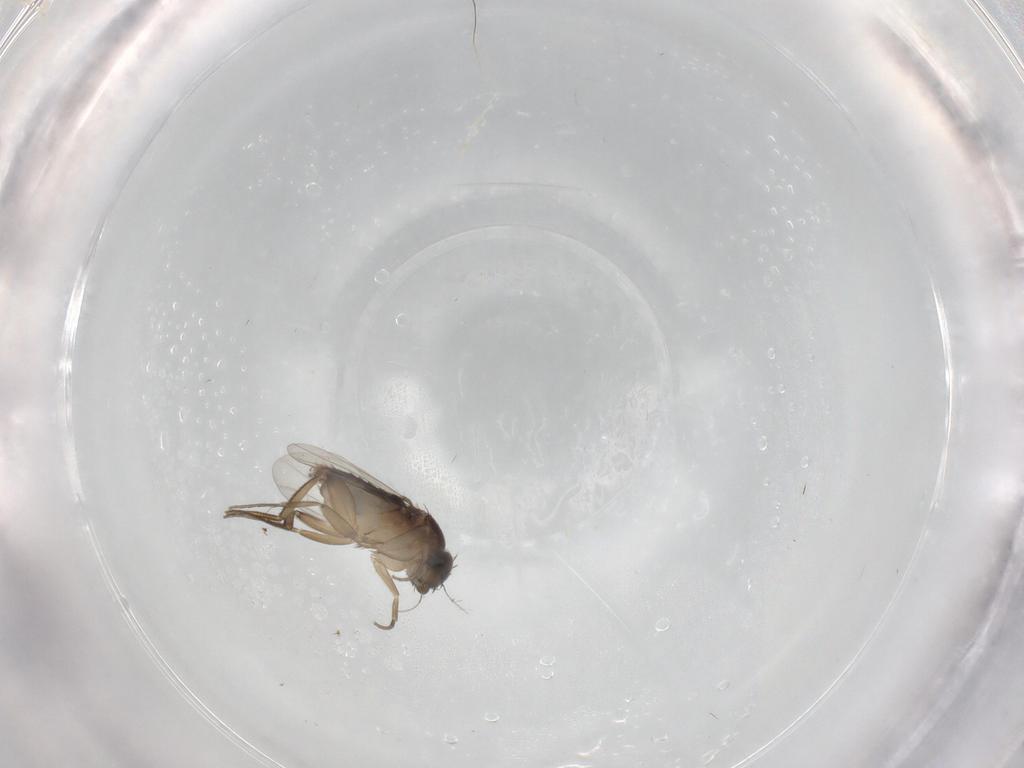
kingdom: Animalia
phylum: Arthropoda
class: Insecta
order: Diptera
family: Phoridae
